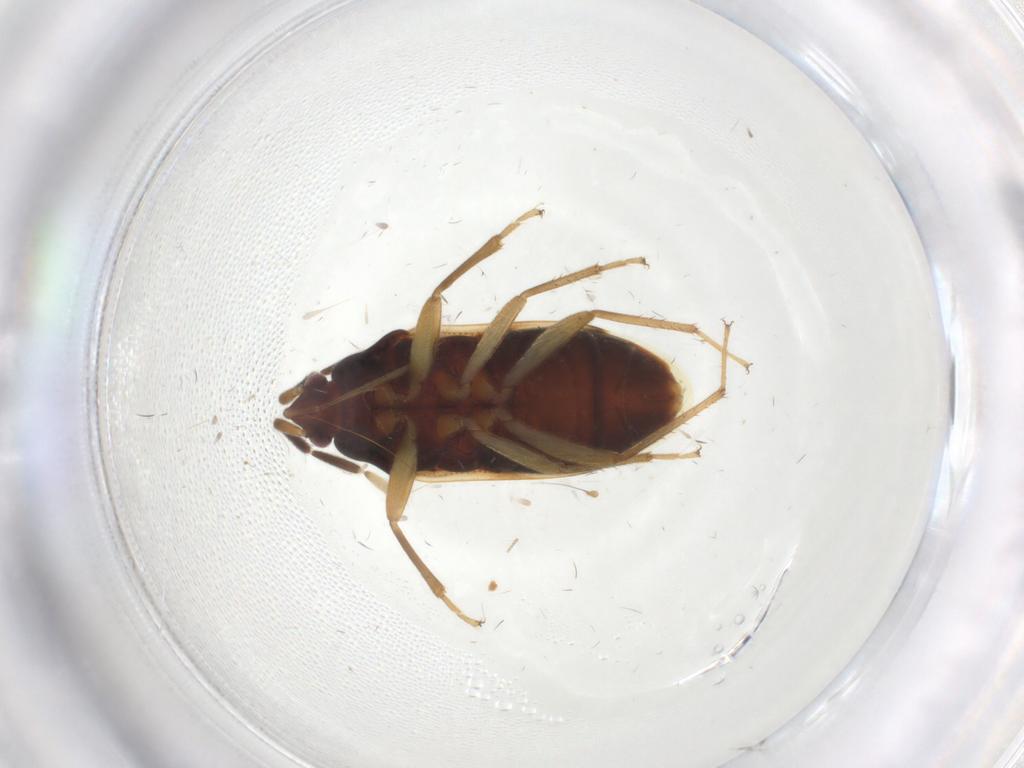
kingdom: Animalia
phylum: Arthropoda
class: Insecta
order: Hemiptera
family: Rhyparochromidae
